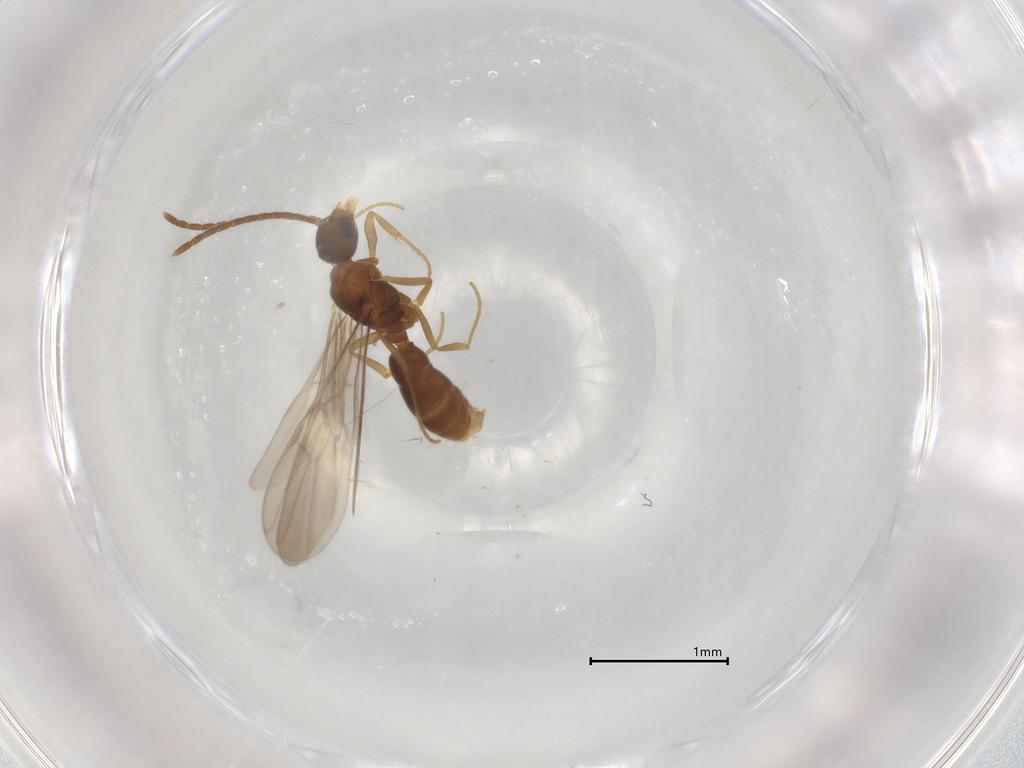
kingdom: Animalia
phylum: Arthropoda
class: Insecta
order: Hymenoptera
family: Formicidae
